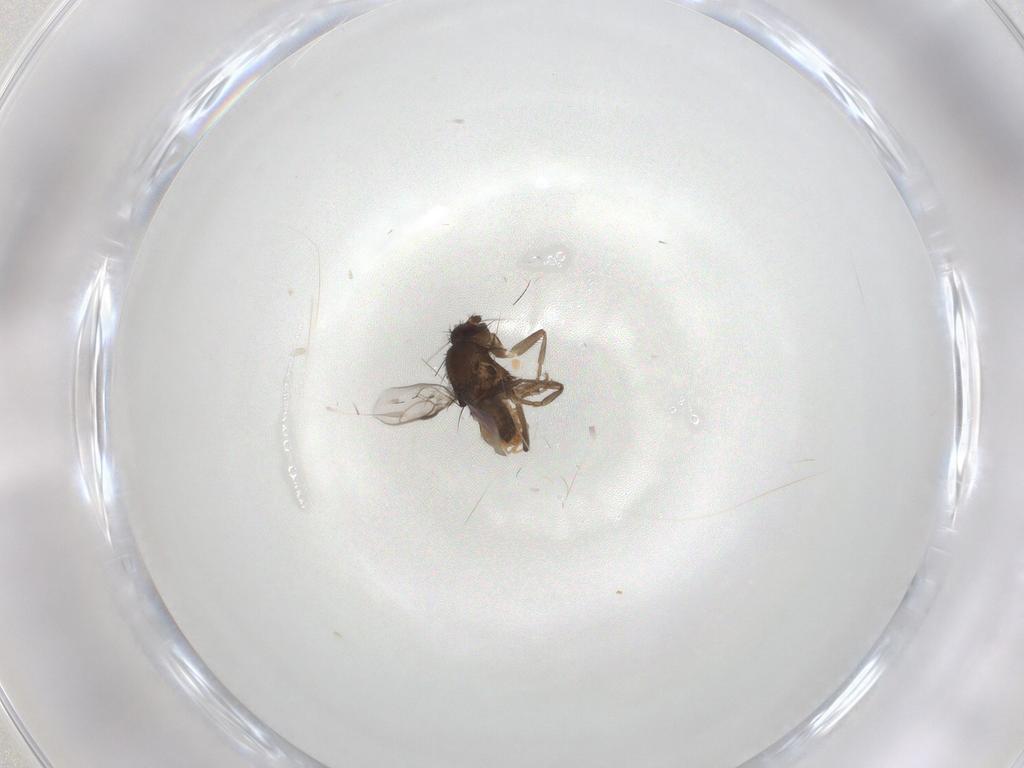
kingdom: Animalia
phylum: Arthropoda
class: Insecta
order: Diptera
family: Sphaeroceridae
